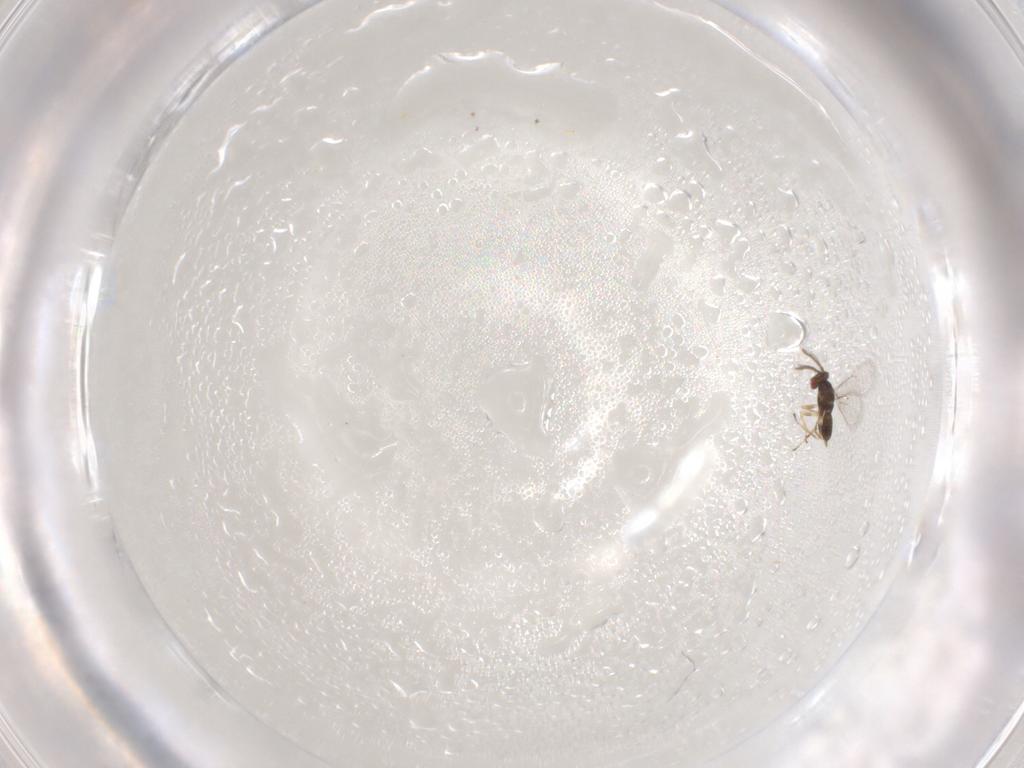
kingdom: Animalia
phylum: Arthropoda
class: Insecta
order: Hymenoptera
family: Eulophidae
